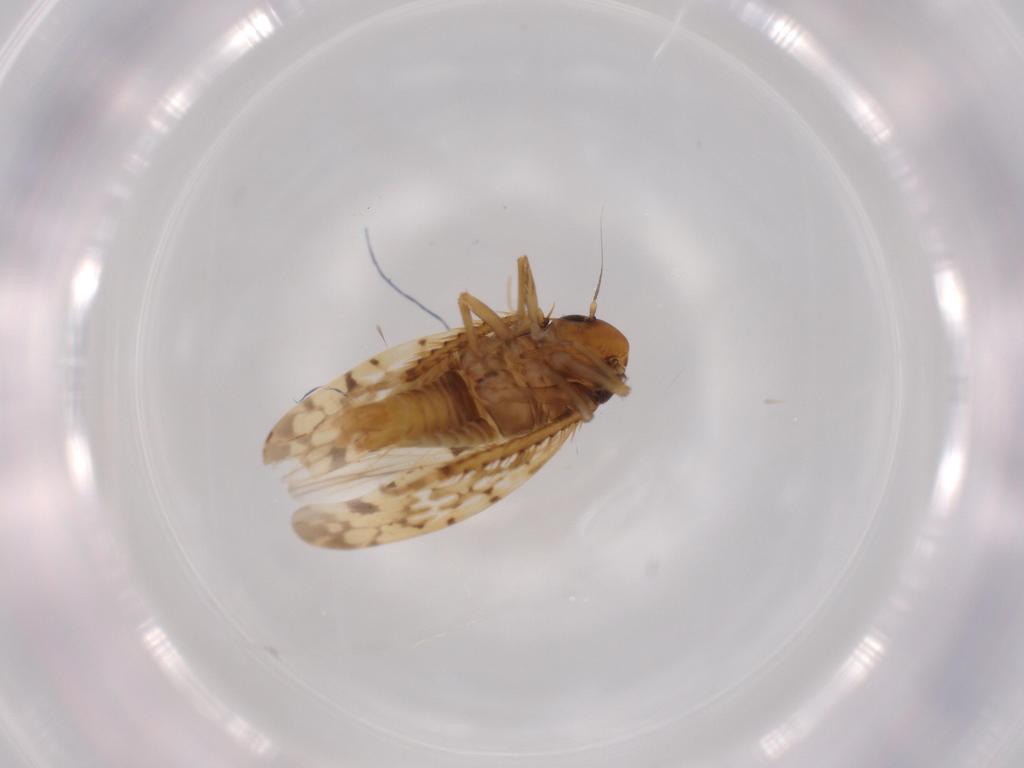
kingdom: Animalia
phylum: Arthropoda
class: Insecta
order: Hemiptera
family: Cicadellidae
